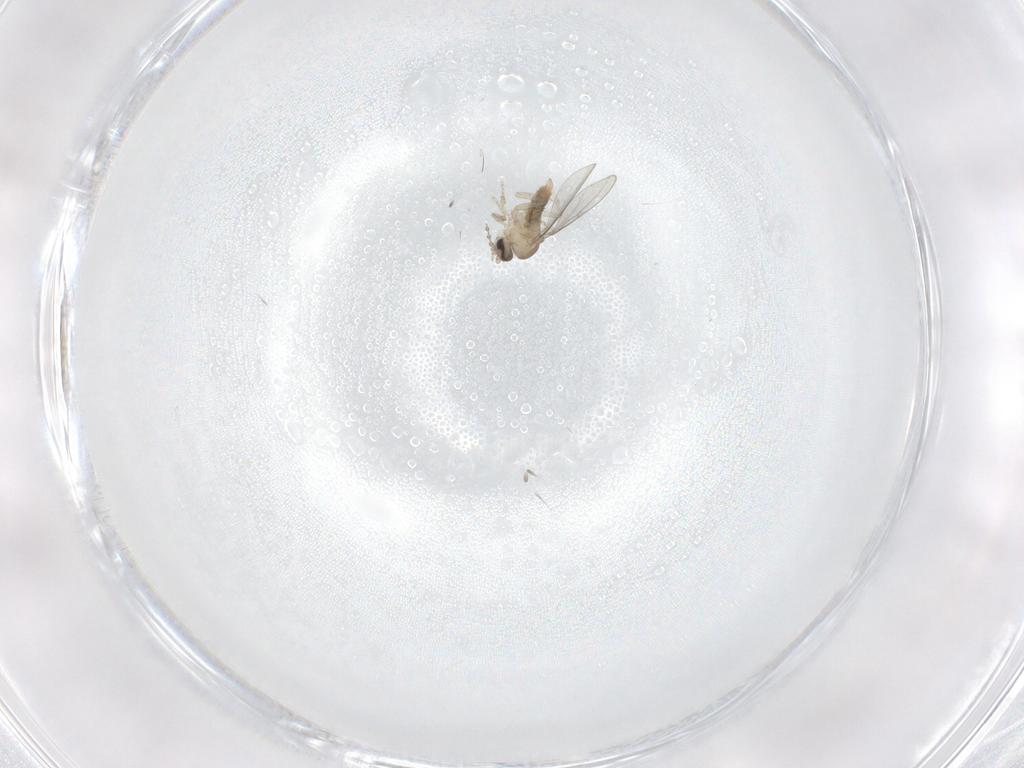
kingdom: Animalia
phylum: Arthropoda
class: Insecta
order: Diptera
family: Cecidomyiidae
